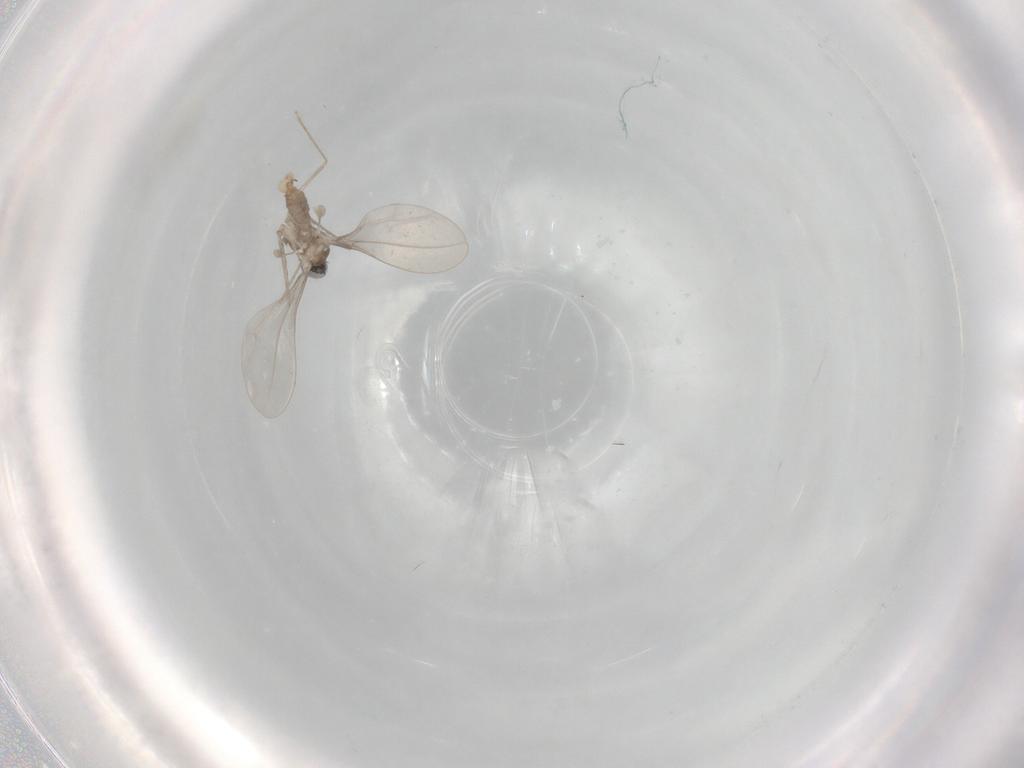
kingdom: Animalia
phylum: Arthropoda
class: Insecta
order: Diptera
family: Cecidomyiidae
